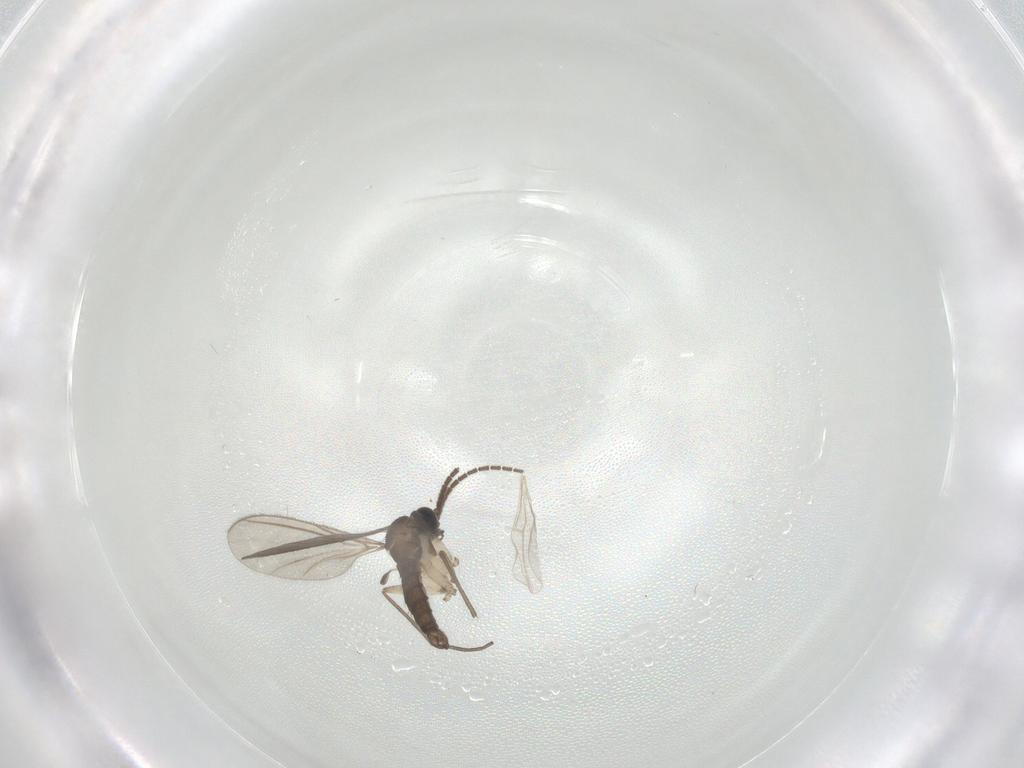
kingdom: Animalia
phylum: Arthropoda
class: Insecta
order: Diptera
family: Sciaridae
